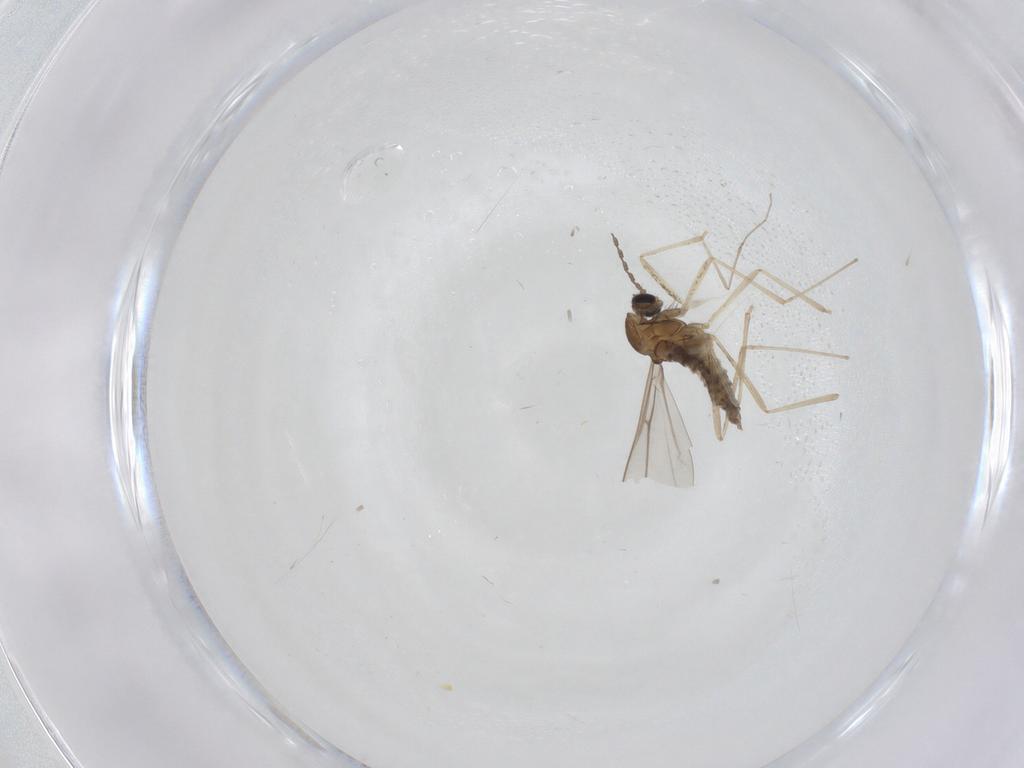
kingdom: Animalia
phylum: Arthropoda
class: Insecta
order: Diptera
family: Cecidomyiidae
